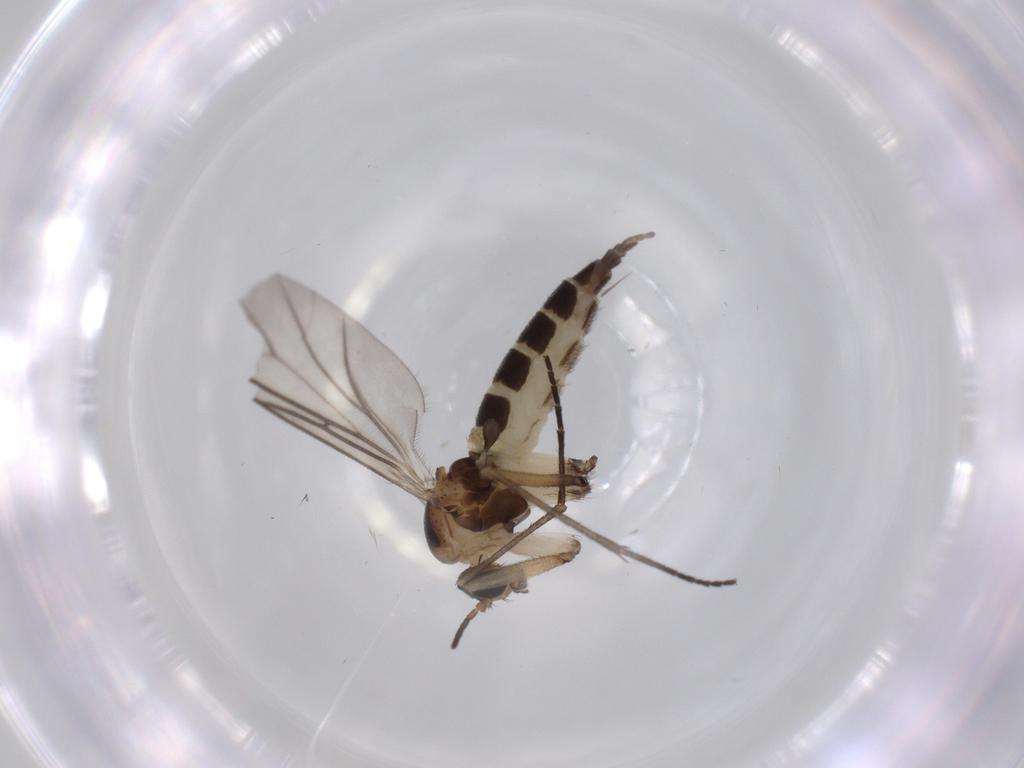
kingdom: Animalia
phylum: Arthropoda
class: Insecta
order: Diptera
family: Sciaridae
